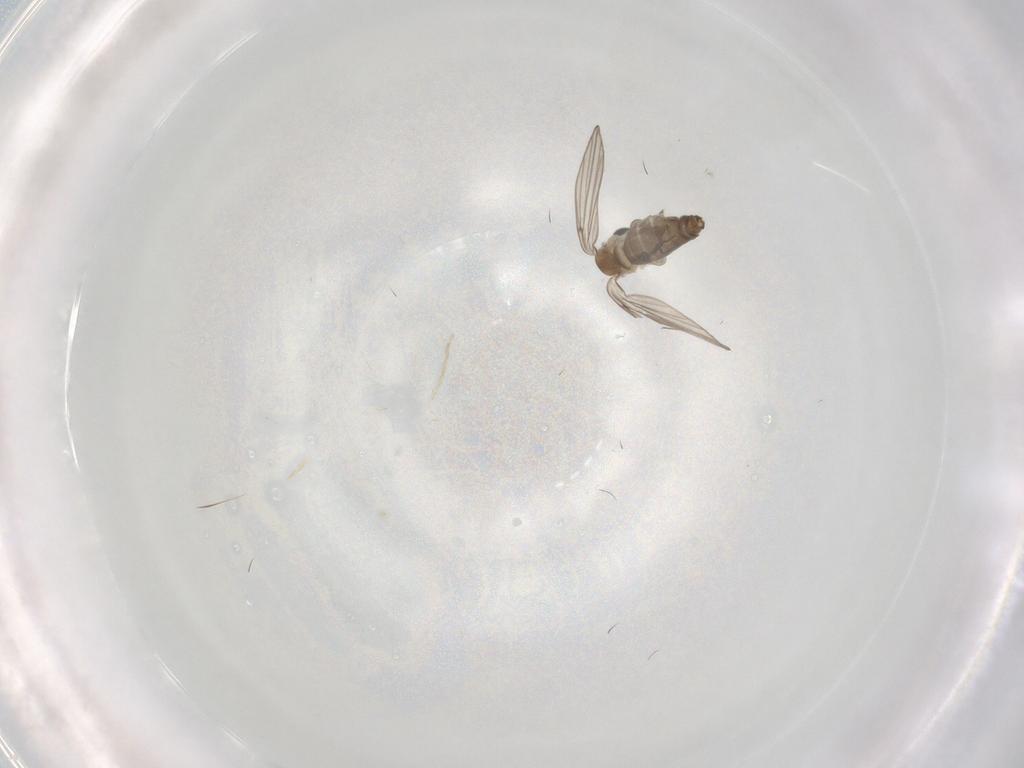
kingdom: Animalia
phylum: Arthropoda
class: Insecta
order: Diptera
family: Psychodidae
